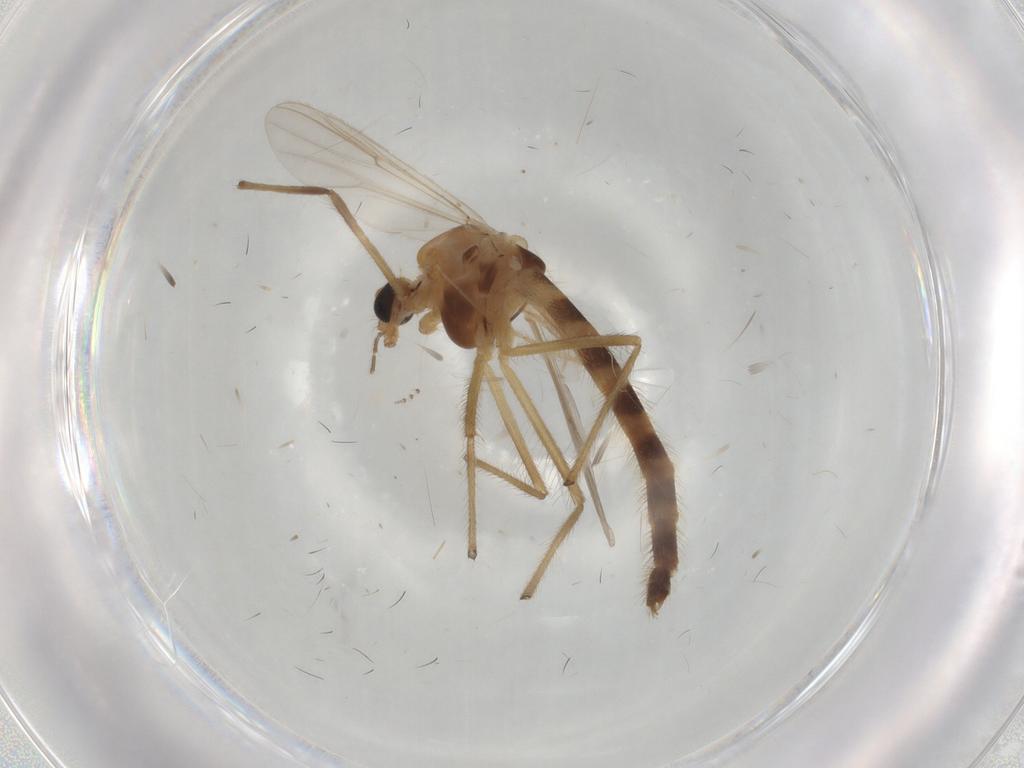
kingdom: Animalia
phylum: Arthropoda
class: Insecta
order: Diptera
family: Chironomidae
